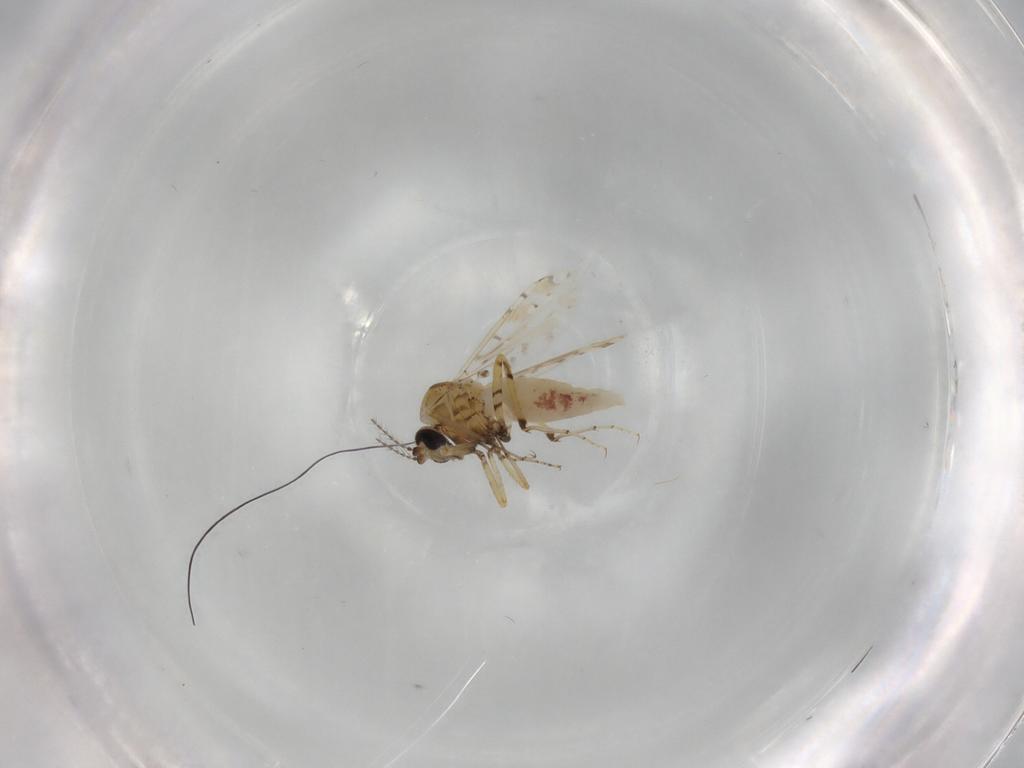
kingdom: Animalia
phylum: Arthropoda
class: Insecta
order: Diptera
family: Ceratopogonidae
